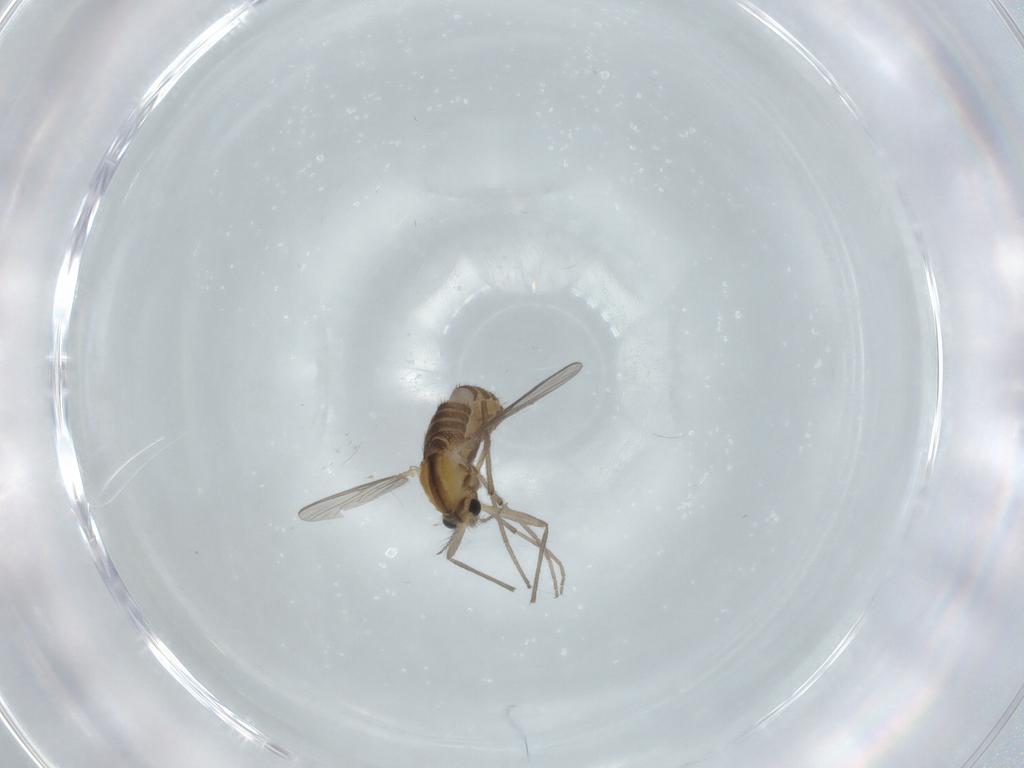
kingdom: Animalia
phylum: Arthropoda
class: Insecta
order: Diptera
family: Chironomidae
